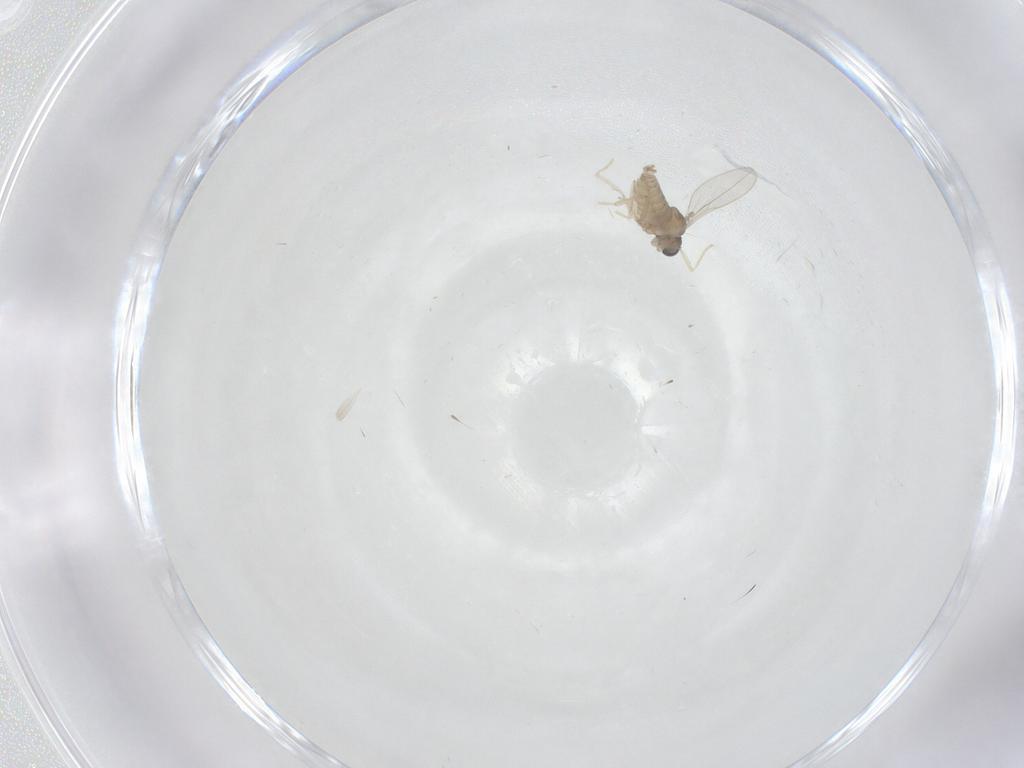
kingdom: Animalia
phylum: Arthropoda
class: Insecta
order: Diptera
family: Cecidomyiidae
